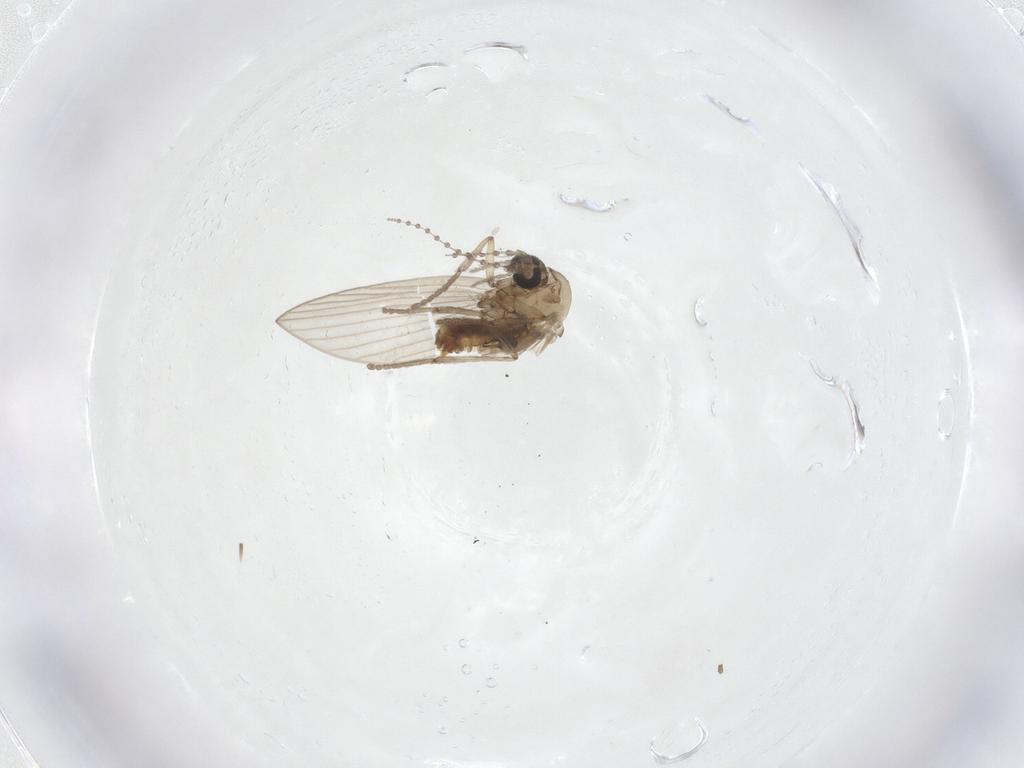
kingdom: Animalia
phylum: Arthropoda
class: Insecta
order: Diptera
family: Psychodidae
